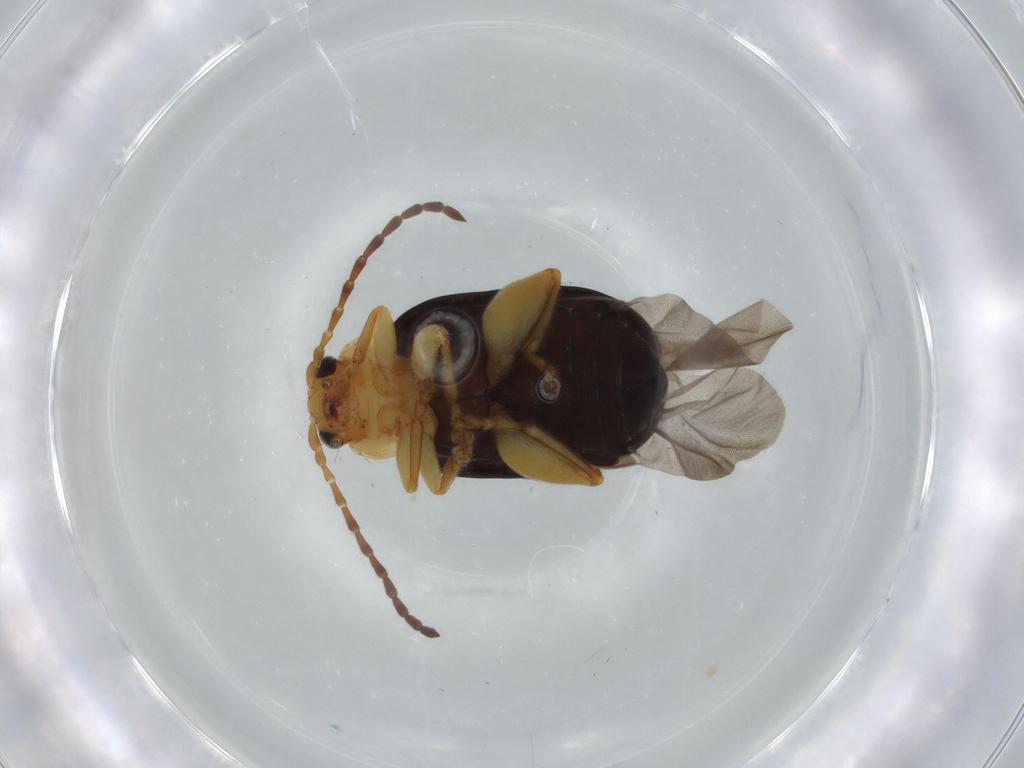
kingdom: Animalia
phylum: Arthropoda
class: Insecta
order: Coleoptera
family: Chrysomelidae
